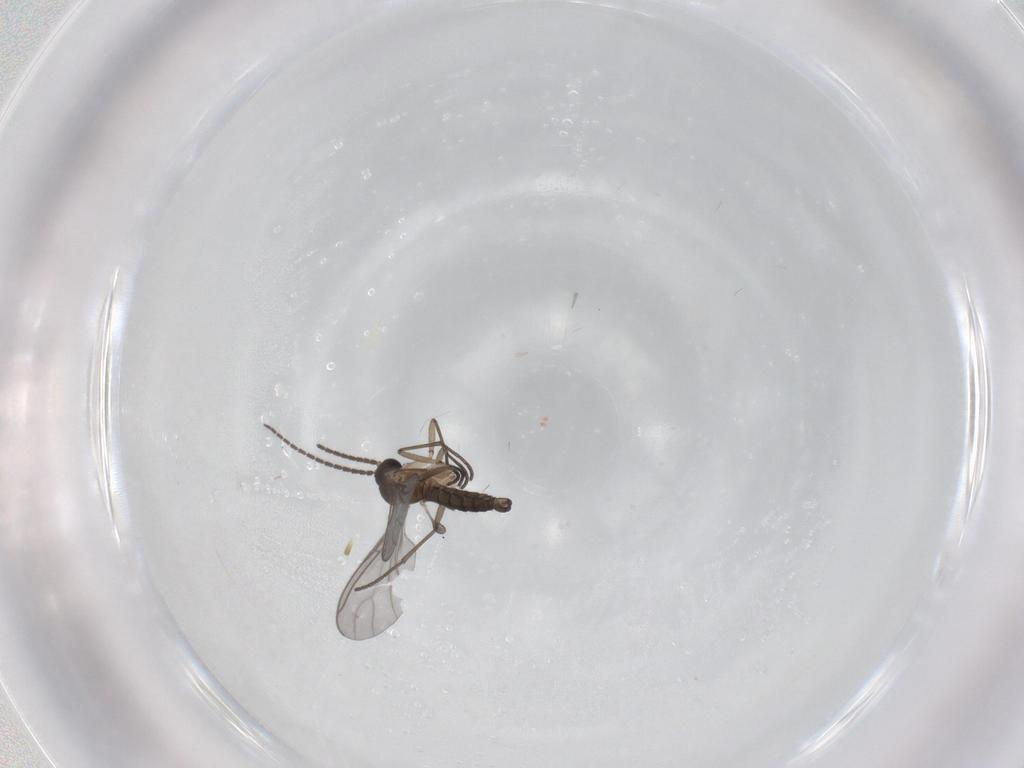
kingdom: Animalia
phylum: Arthropoda
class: Insecta
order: Diptera
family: Sciaridae
